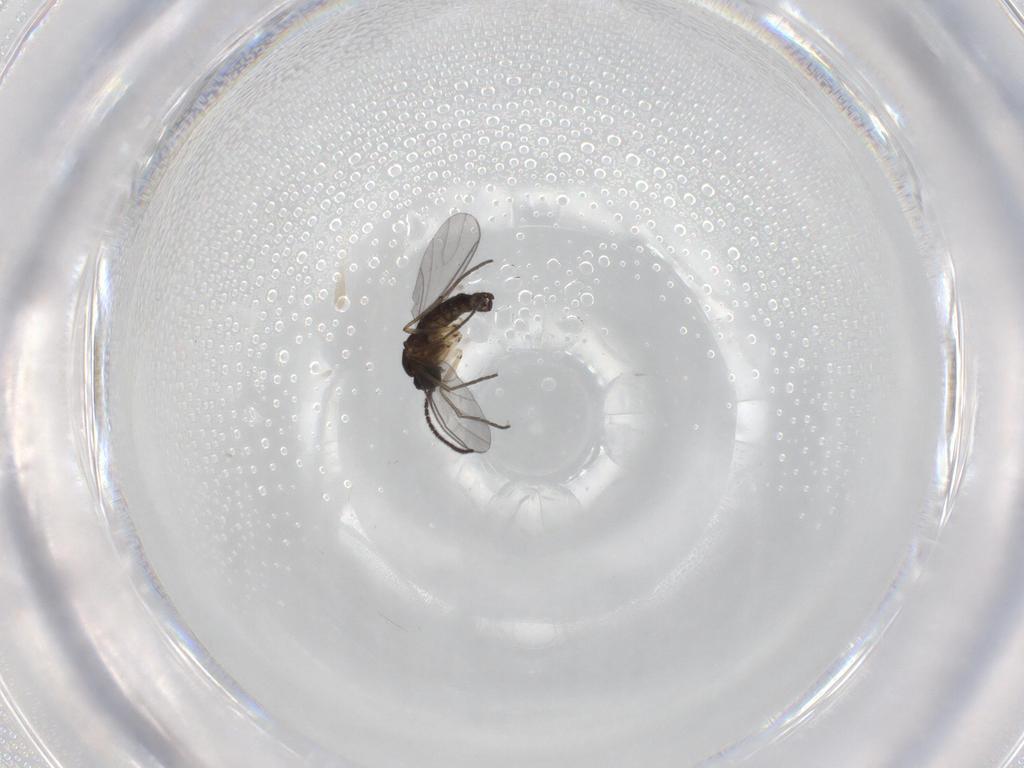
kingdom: Animalia
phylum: Arthropoda
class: Insecta
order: Diptera
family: Sciaridae
